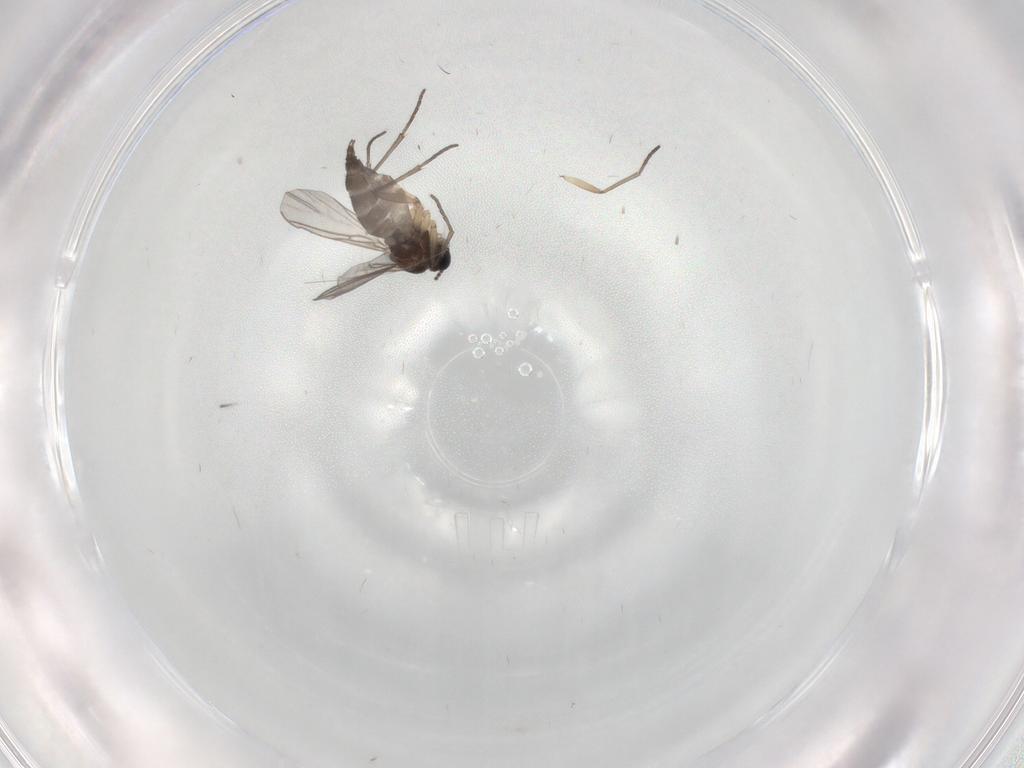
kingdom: Animalia
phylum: Arthropoda
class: Insecta
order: Diptera
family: Sciaridae
